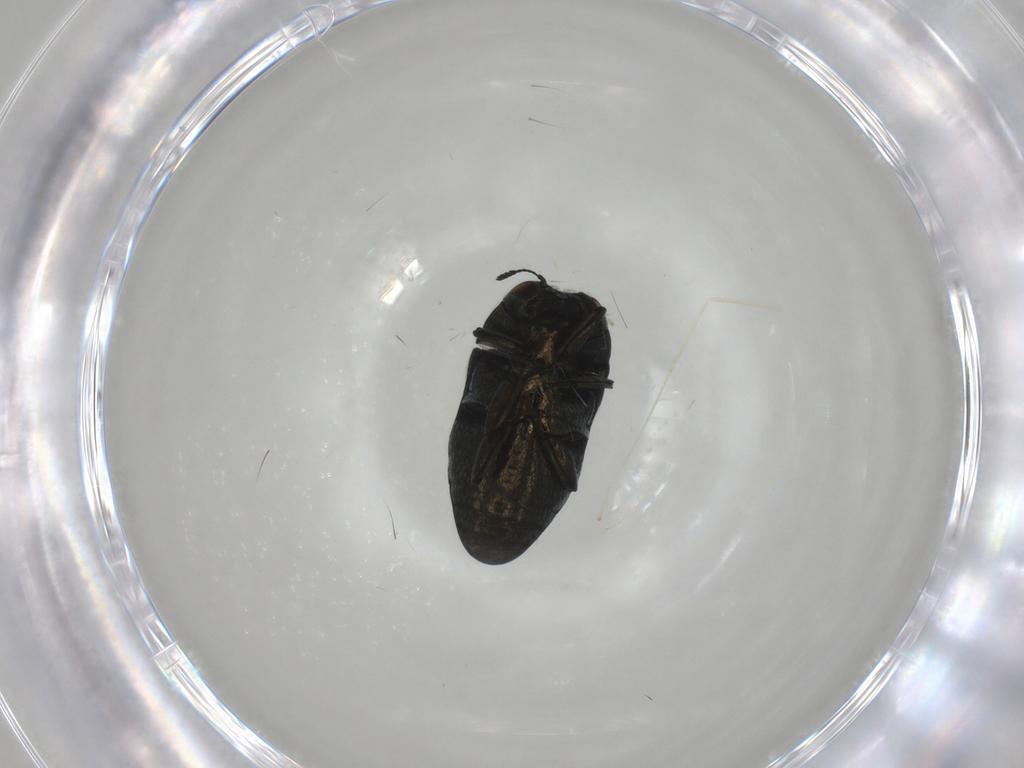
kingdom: Animalia
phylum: Arthropoda
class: Insecta
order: Coleoptera
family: Buprestidae
